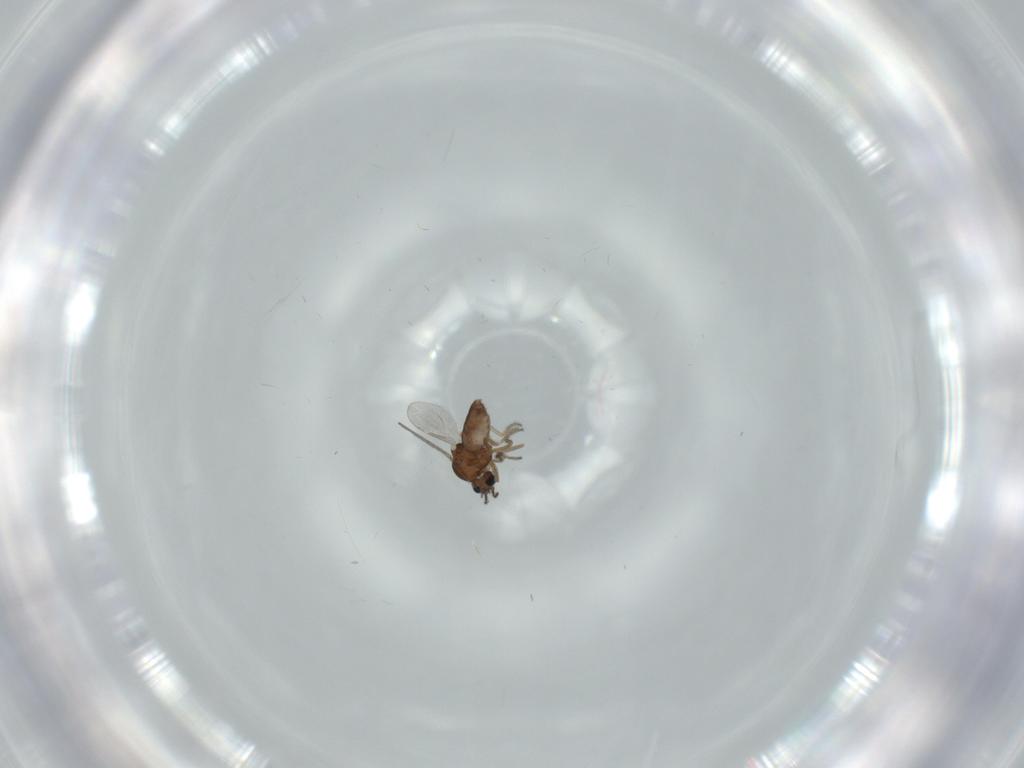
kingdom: Animalia
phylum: Arthropoda
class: Insecta
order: Diptera
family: Ceratopogonidae
